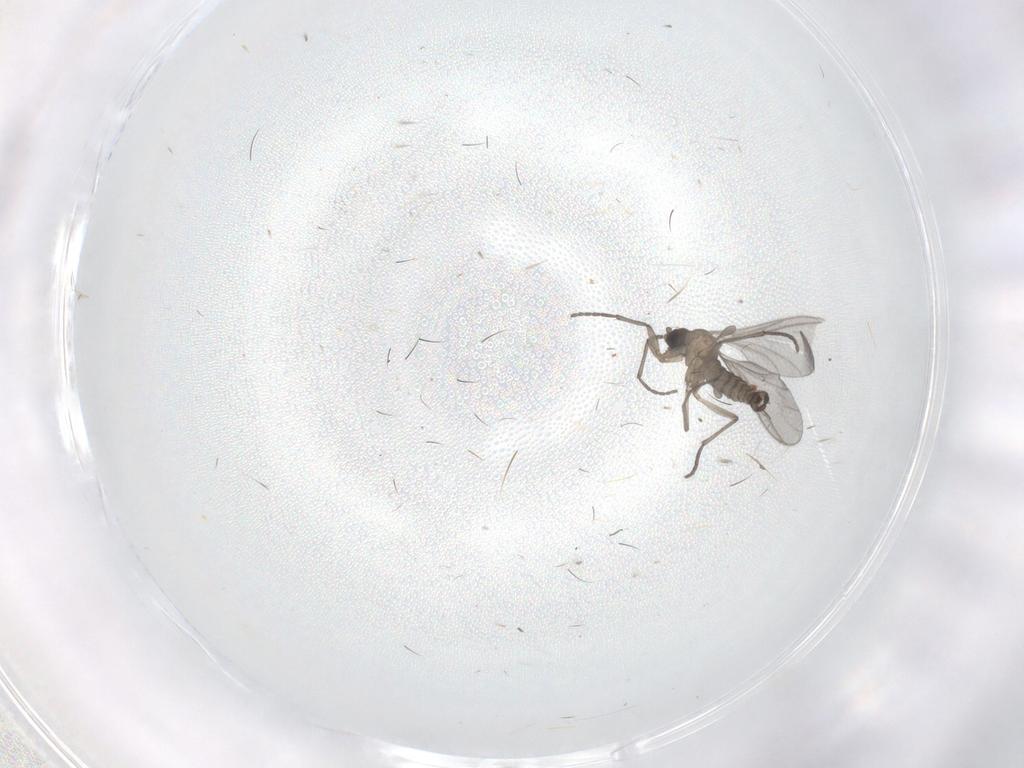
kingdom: Animalia
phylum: Arthropoda
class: Insecta
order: Diptera
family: Sciaridae
